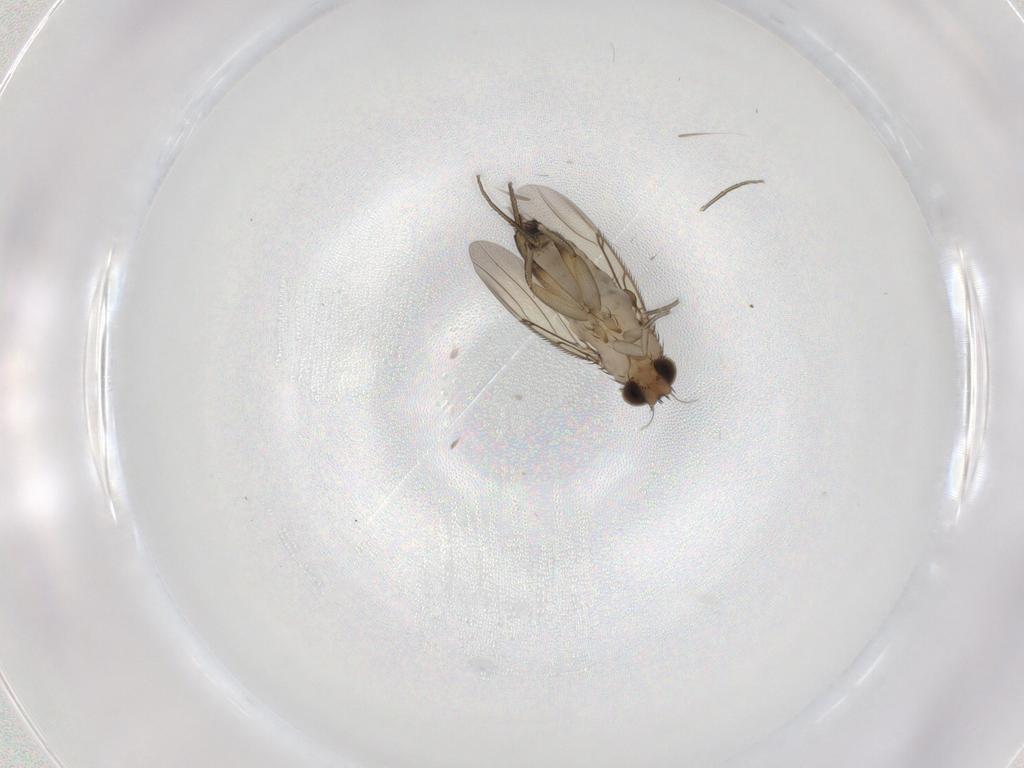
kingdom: Animalia
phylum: Arthropoda
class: Insecta
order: Diptera
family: Phoridae
